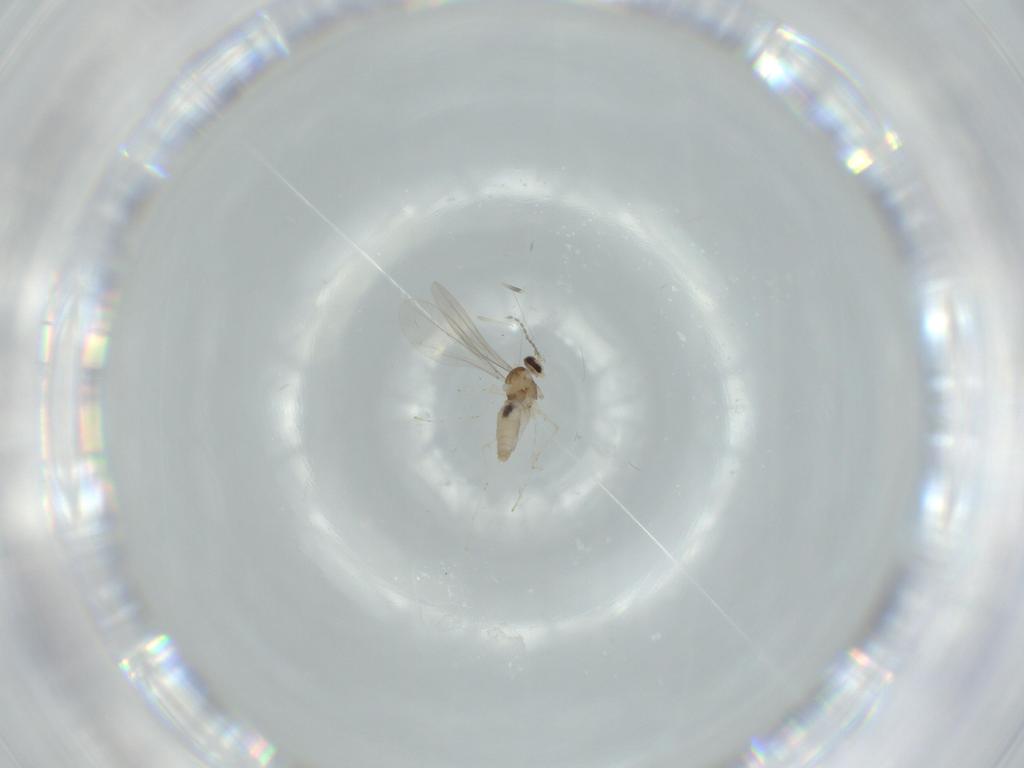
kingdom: Animalia
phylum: Arthropoda
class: Insecta
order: Diptera
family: Cecidomyiidae
